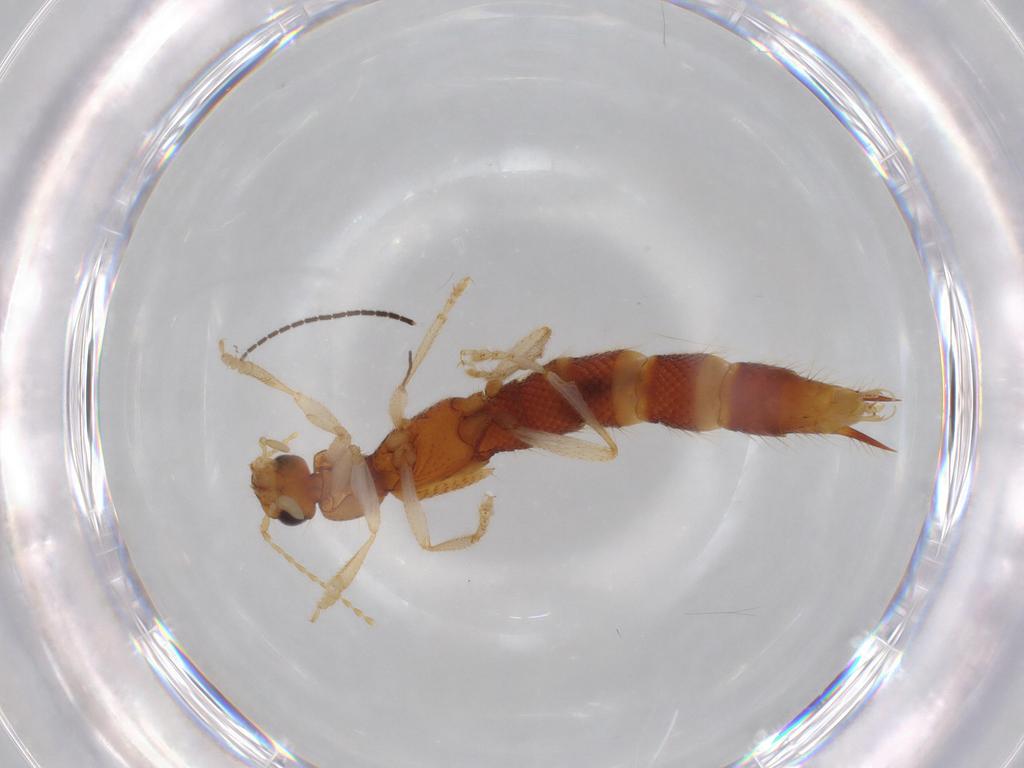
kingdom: Animalia
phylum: Arthropoda
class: Insecta
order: Coleoptera
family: Staphylinidae
